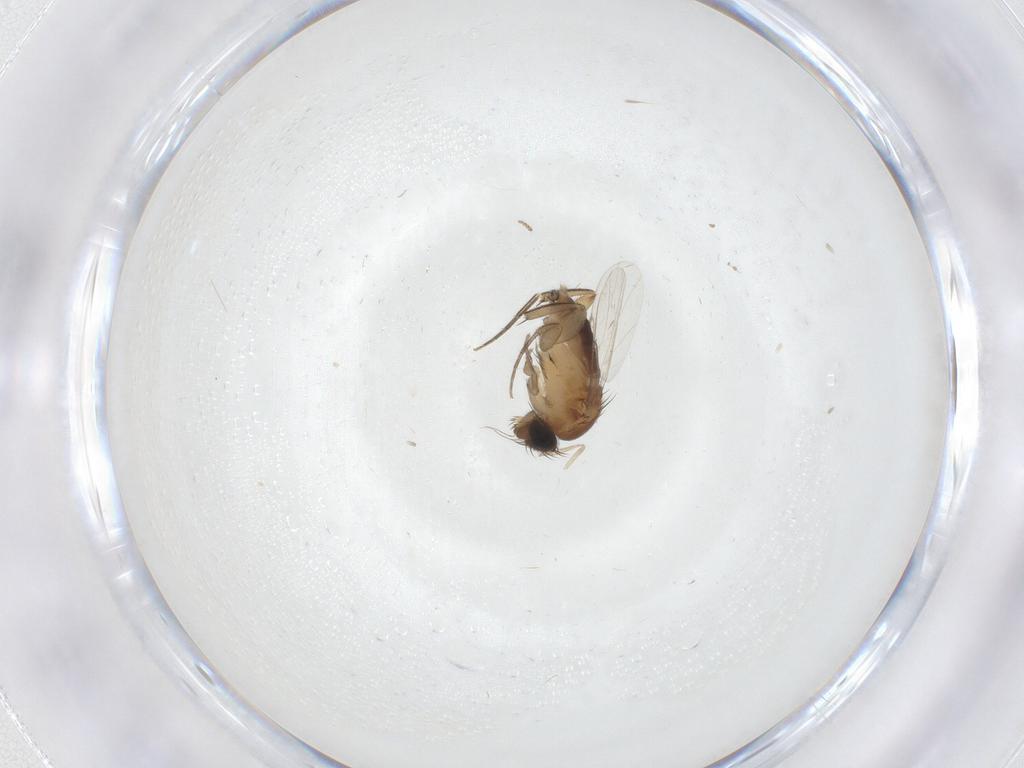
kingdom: Animalia
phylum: Arthropoda
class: Insecta
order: Diptera
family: Phoridae
